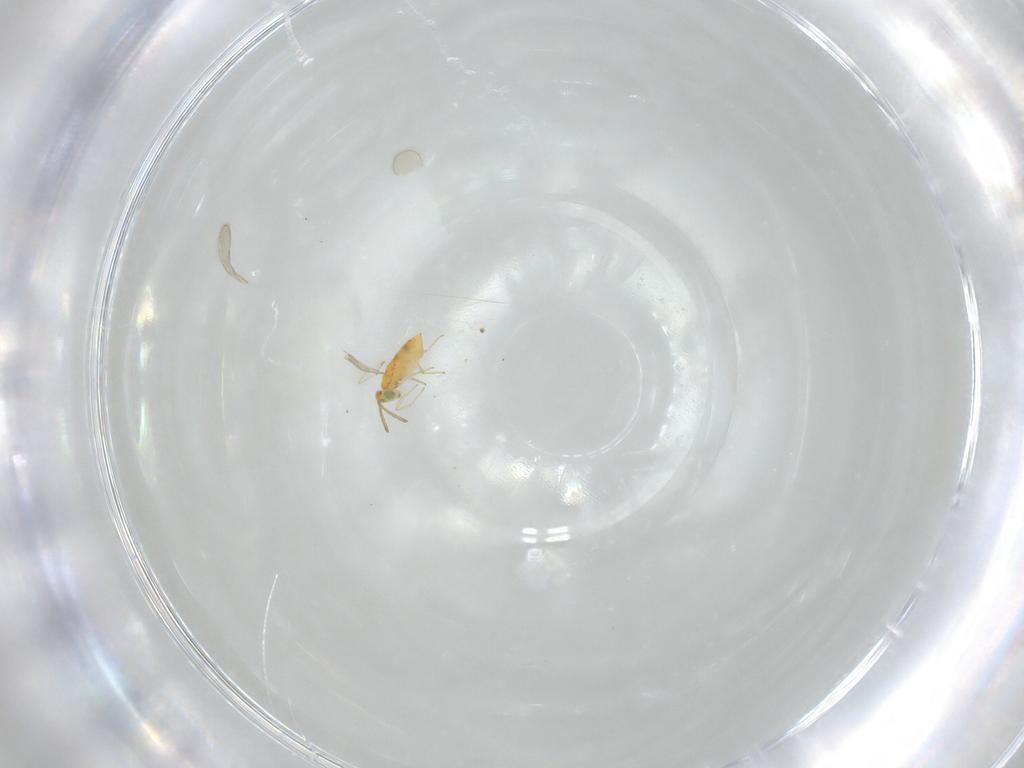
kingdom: Animalia
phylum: Arthropoda
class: Insecta
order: Hymenoptera
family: Aphelinidae
